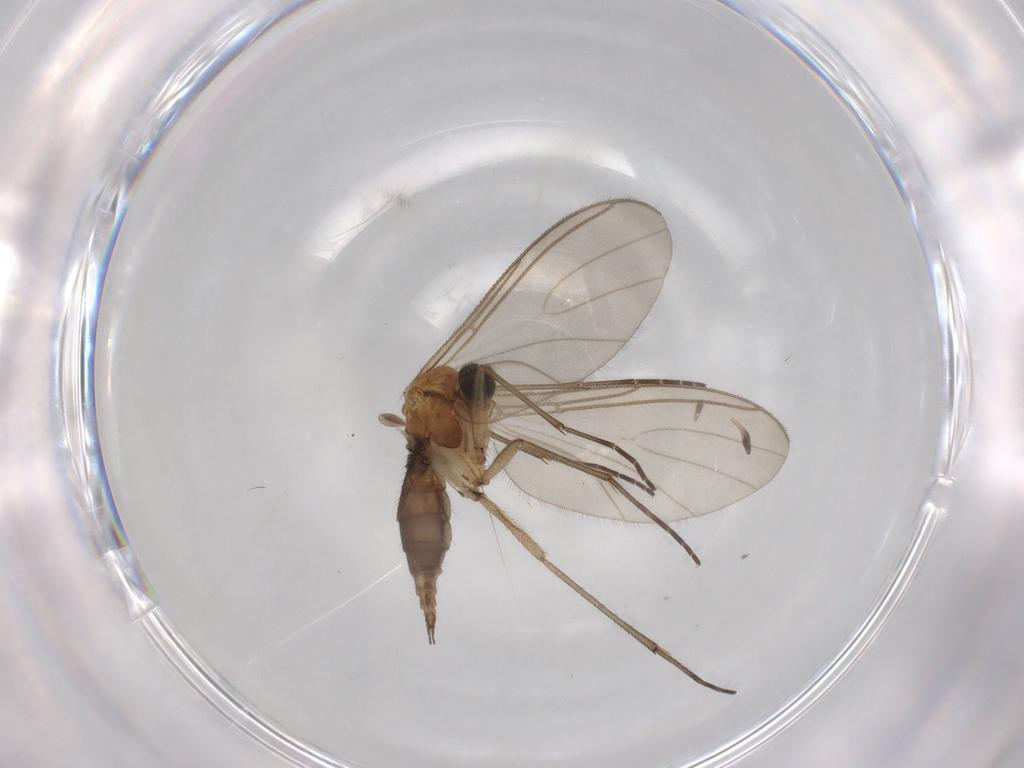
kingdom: Animalia
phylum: Arthropoda
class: Insecta
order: Diptera
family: Sciaridae
